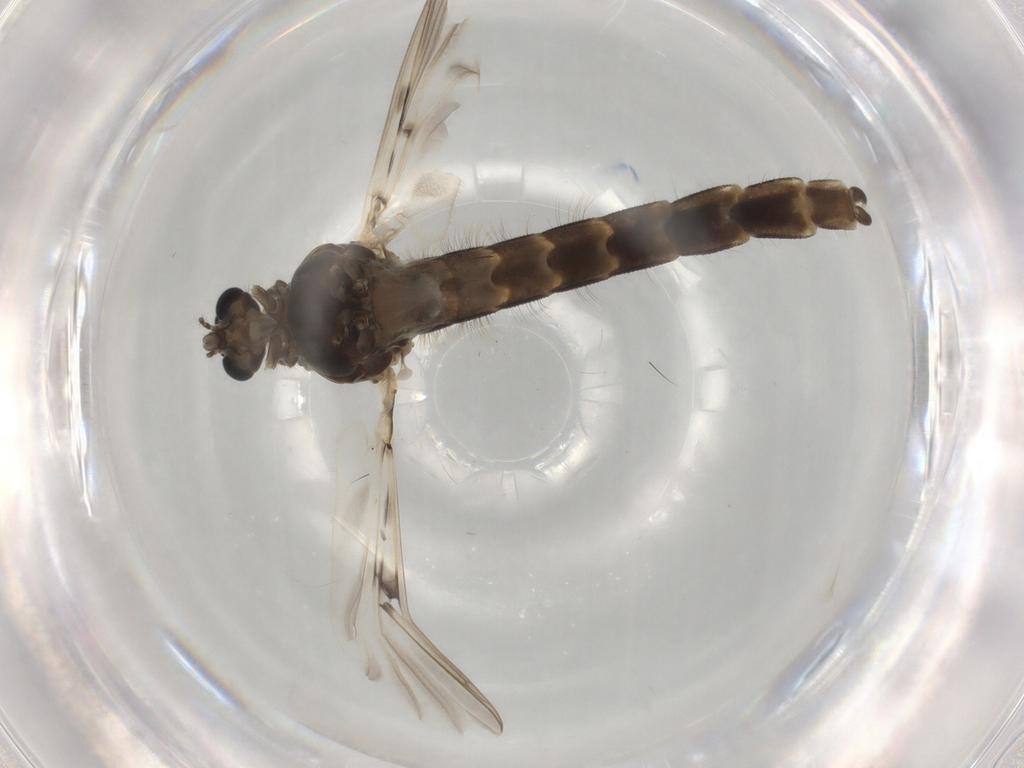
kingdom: Animalia
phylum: Arthropoda
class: Insecta
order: Diptera
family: Chironomidae
